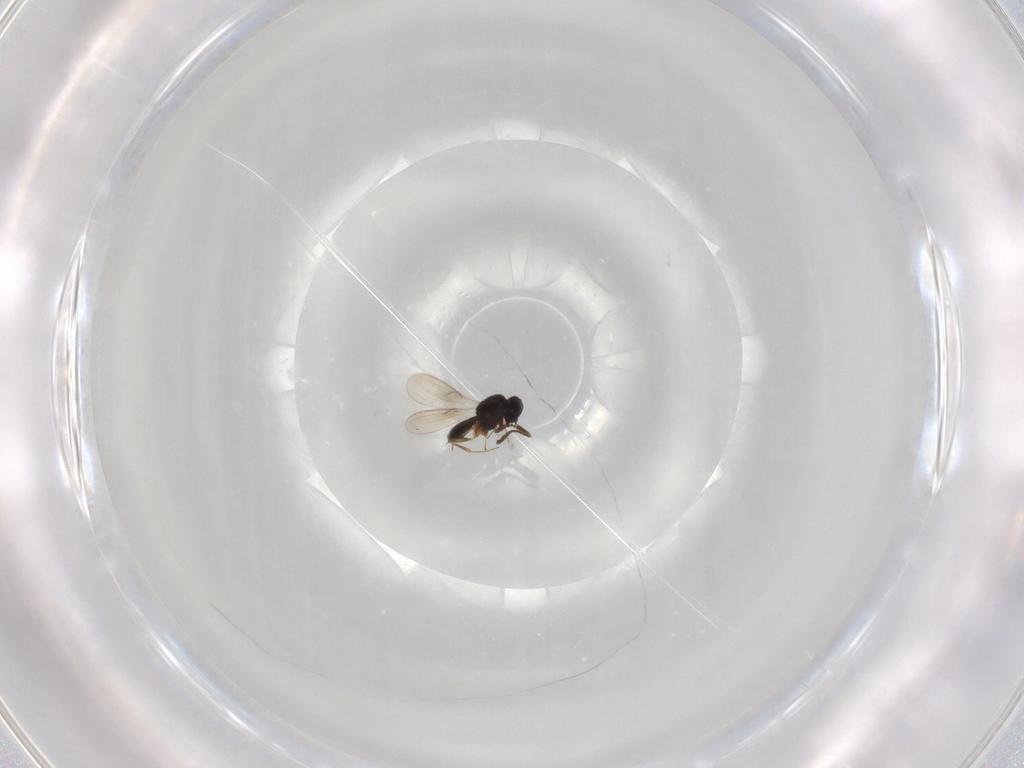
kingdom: Animalia
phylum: Arthropoda
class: Insecta
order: Hymenoptera
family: Scelionidae
